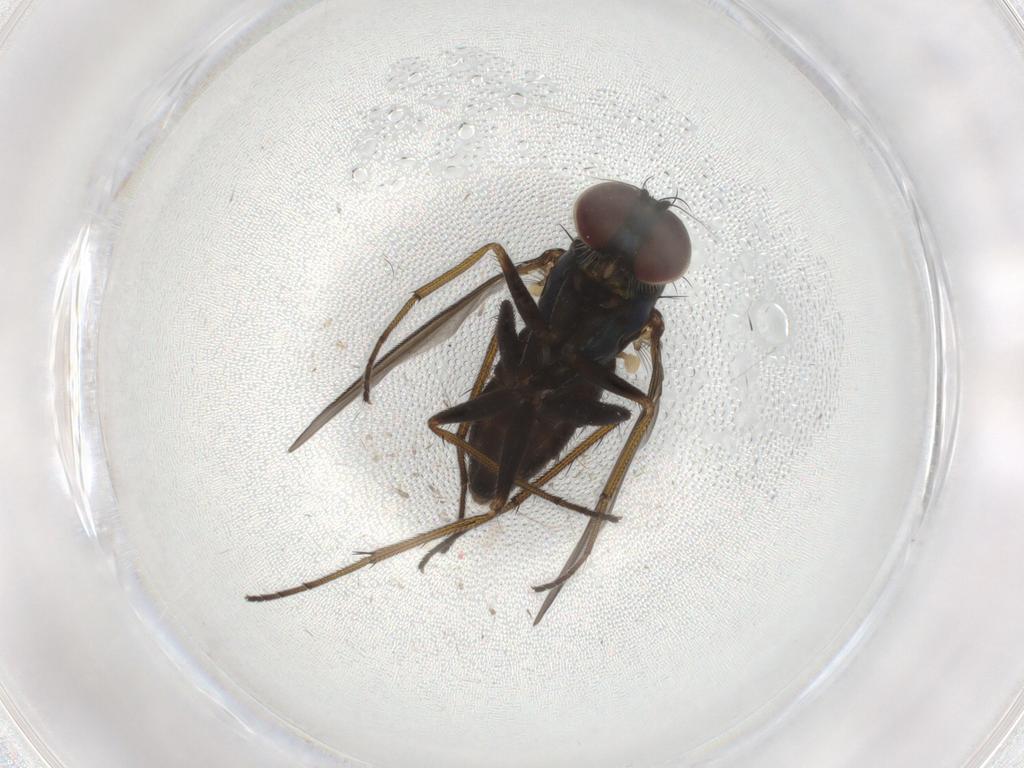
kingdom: Animalia
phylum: Arthropoda
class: Insecta
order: Diptera
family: Dolichopodidae
